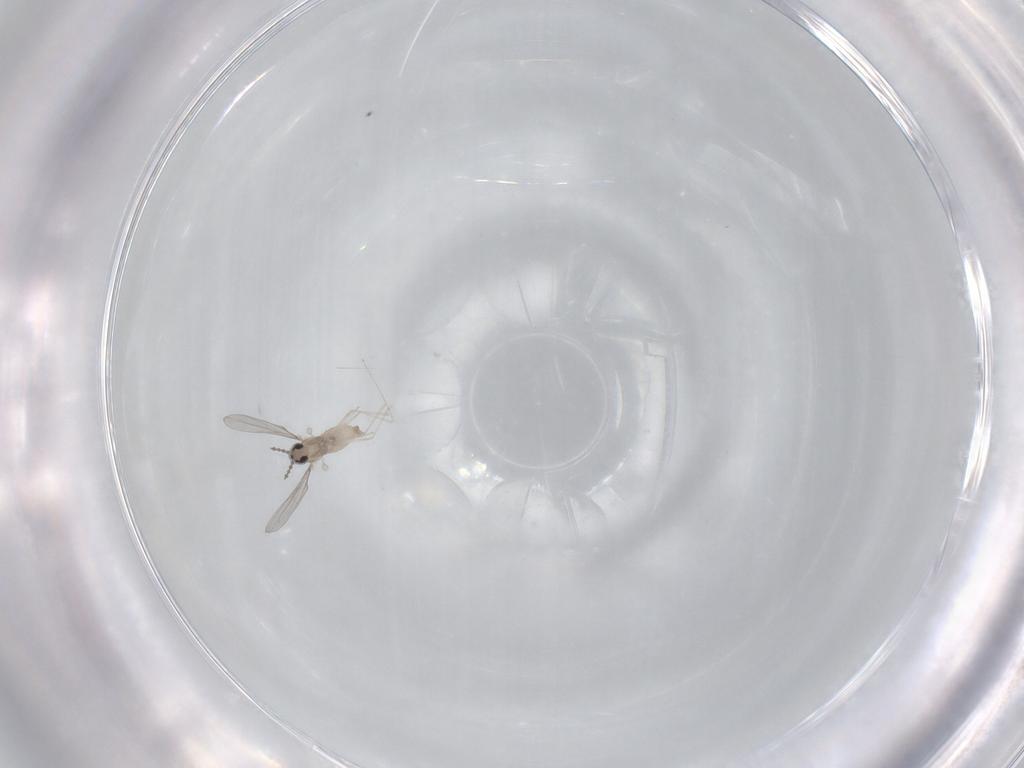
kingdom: Animalia
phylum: Arthropoda
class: Insecta
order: Diptera
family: Cecidomyiidae
